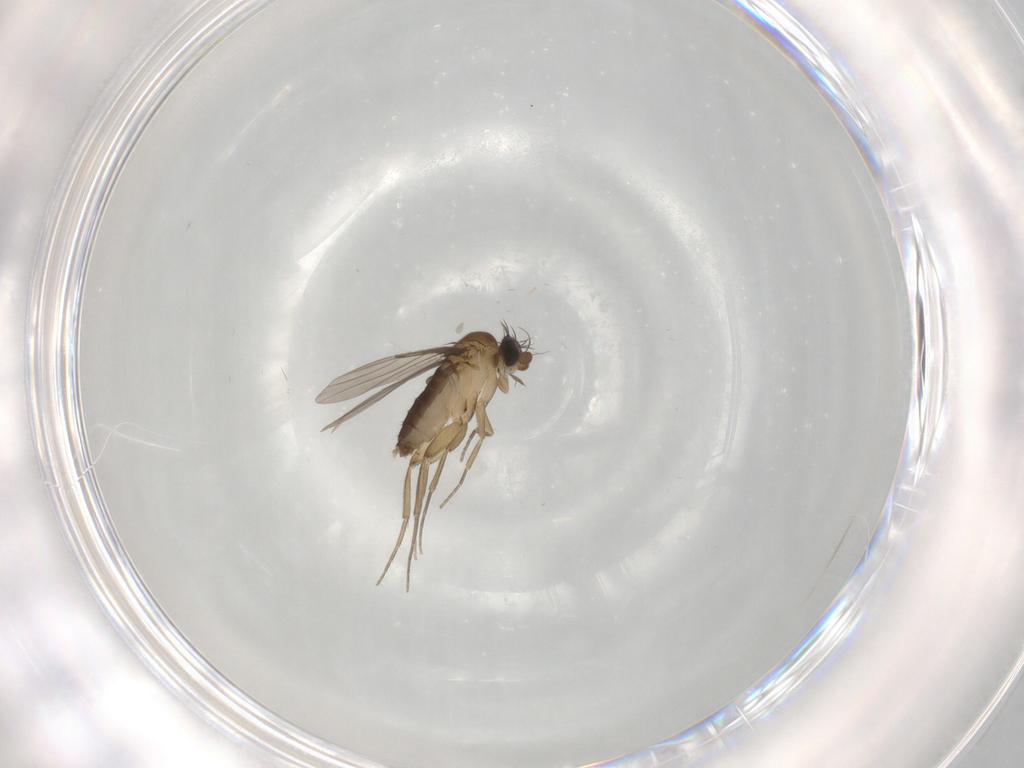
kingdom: Animalia
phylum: Arthropoda
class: Insecta
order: Diptera
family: Phoridae
